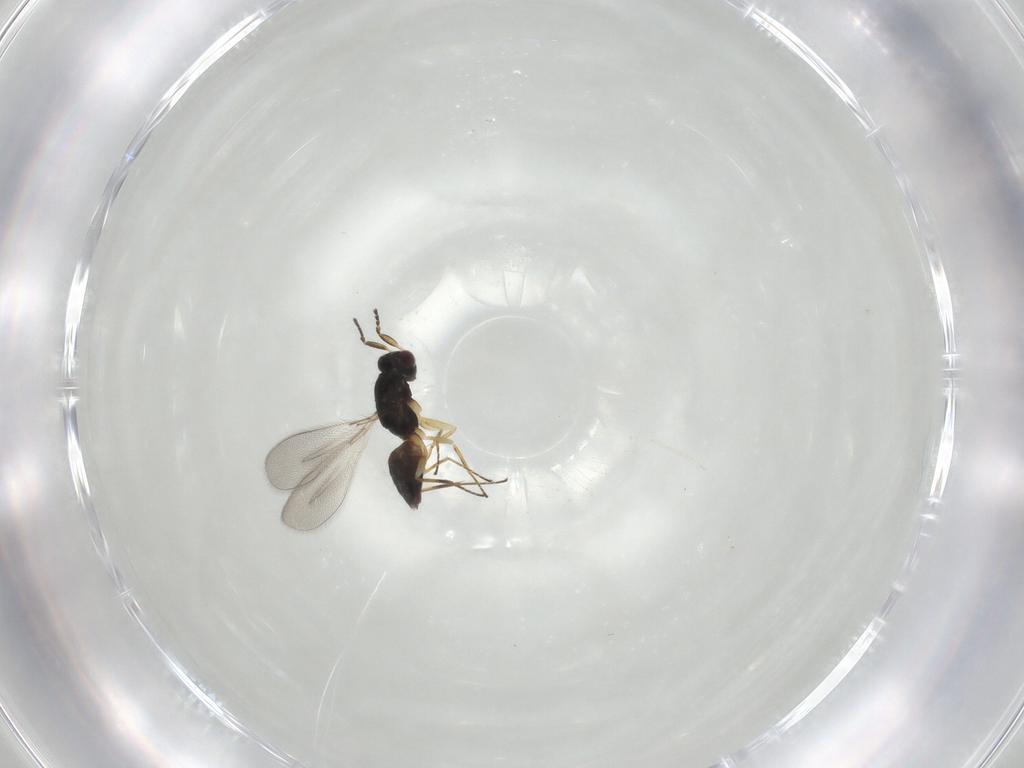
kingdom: Animalia
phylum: Arthropoda
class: Insecta
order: Hymenoptera
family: Mymaridae
